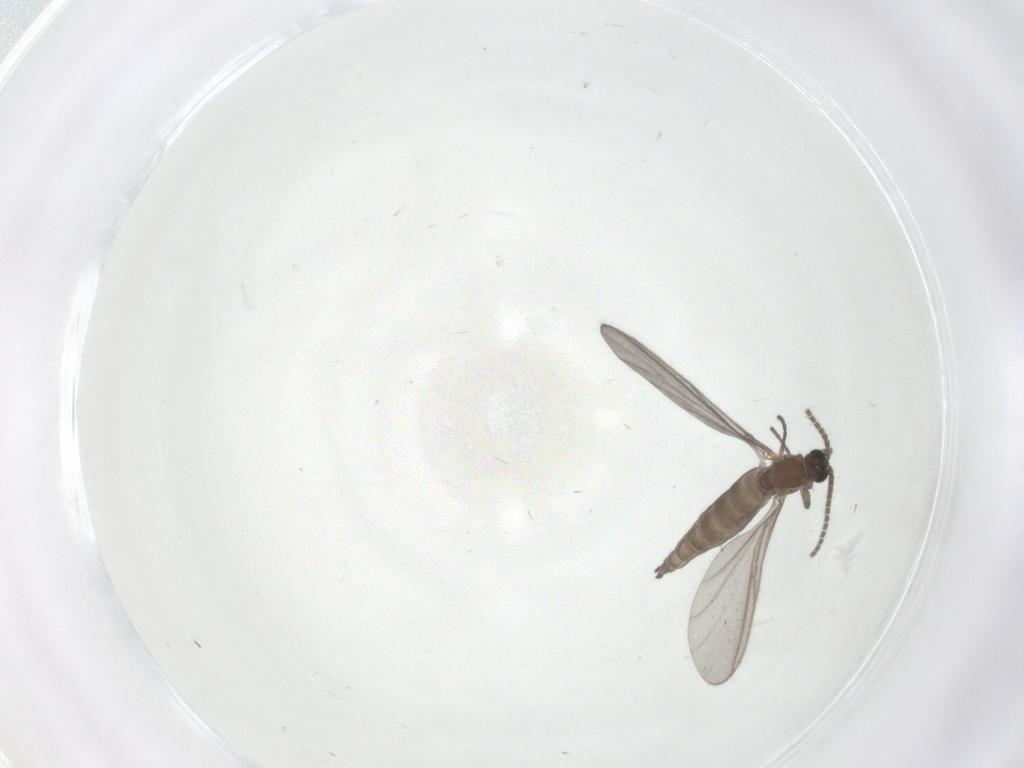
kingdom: Animalia
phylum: Arthropoda
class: Insecta
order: Diptera
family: Sciaridae
